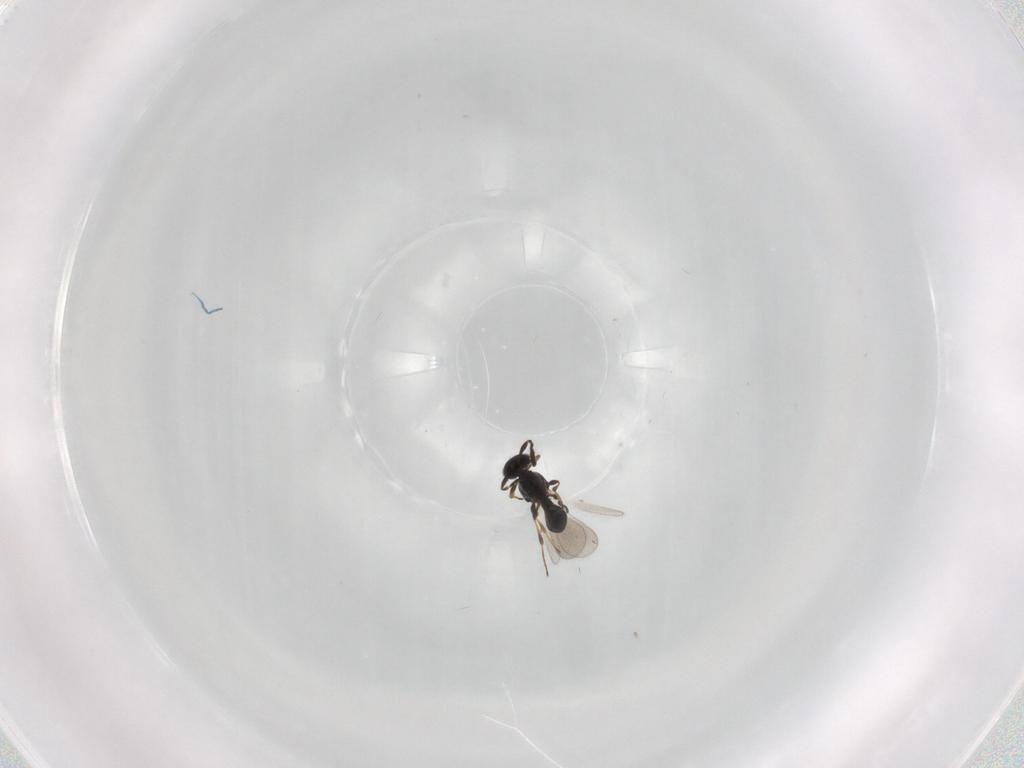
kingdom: Animalia
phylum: Arthropoda
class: Insecta
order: Hymenoptera
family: Platygastridae
